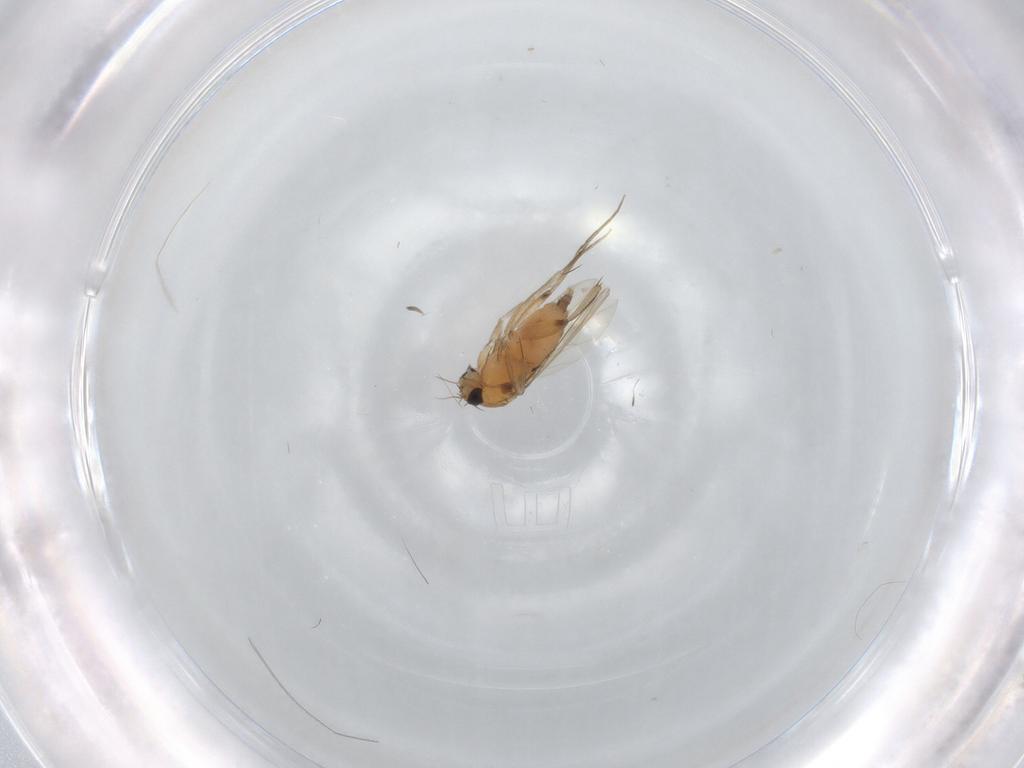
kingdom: Animalia
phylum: Arthropoda
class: Insecta
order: Diptera
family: Phoridae
